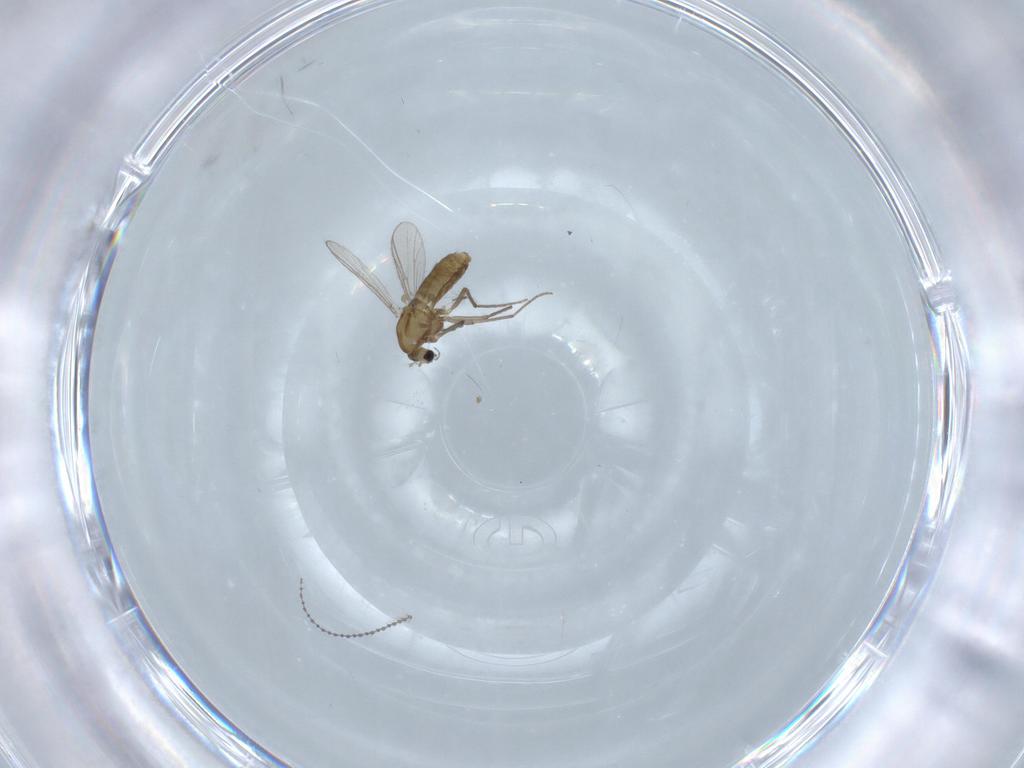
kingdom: Animalia
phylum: Arthropoda
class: Insecta
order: Diptera
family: Chironomidae
